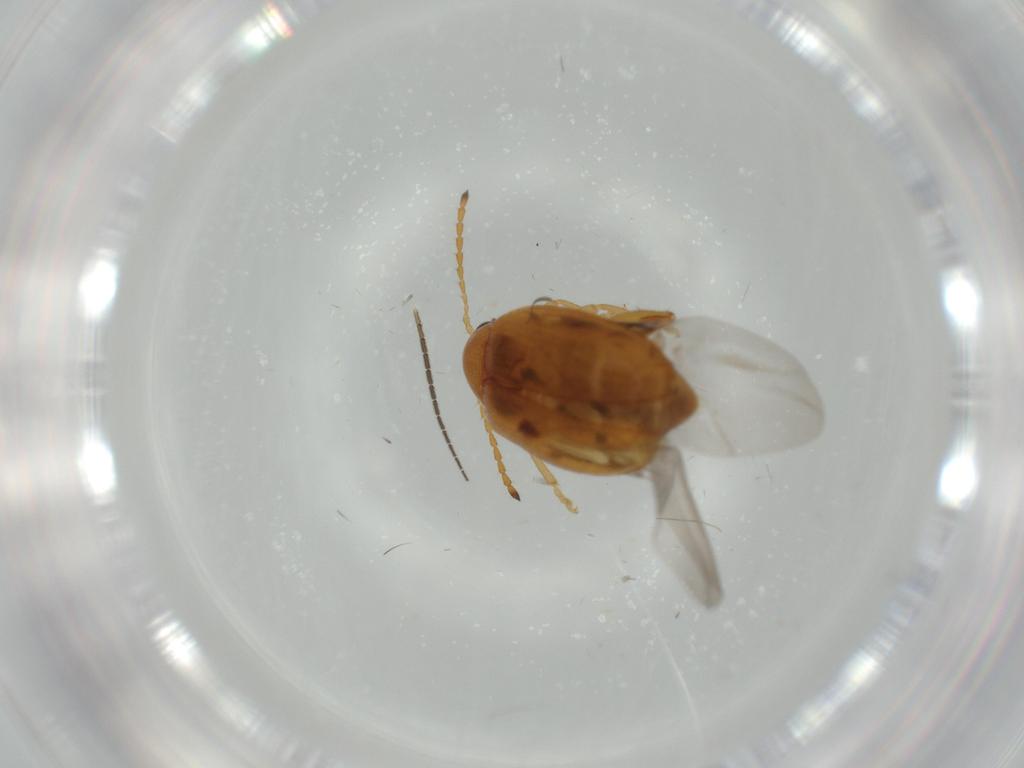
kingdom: Animalia
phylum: Arthropoda
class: Insecta
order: Coleoptera
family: Chrysomelidae
